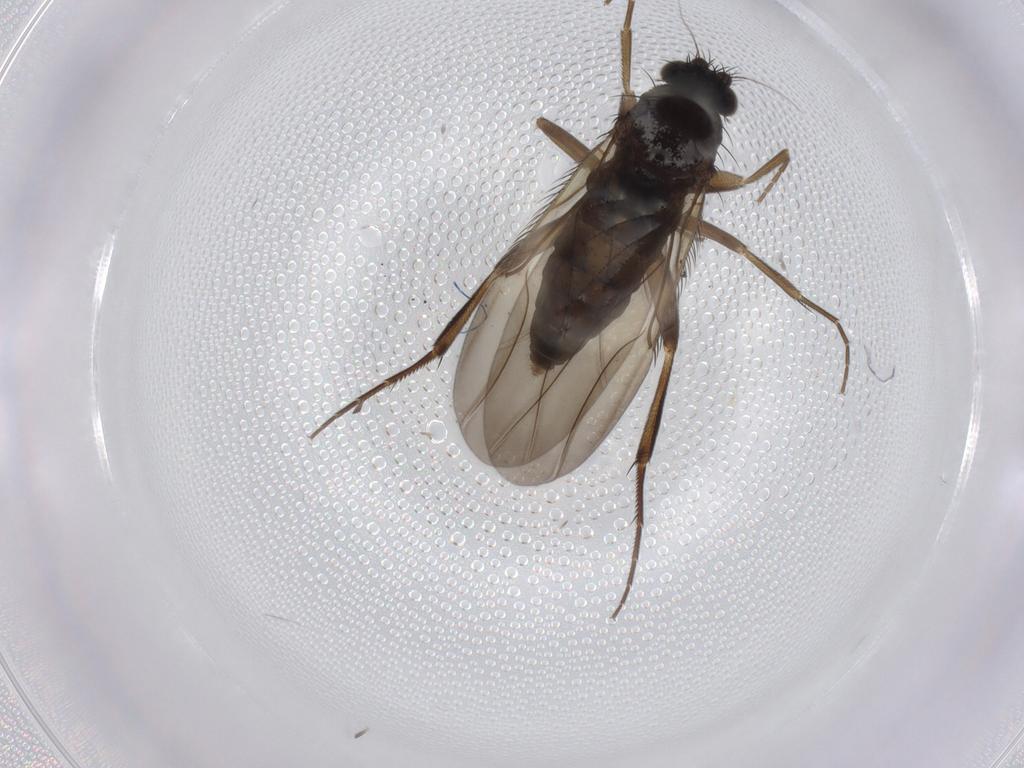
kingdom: Animalia
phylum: Arthropoda
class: Insecta
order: Diptera
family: Phoridae
